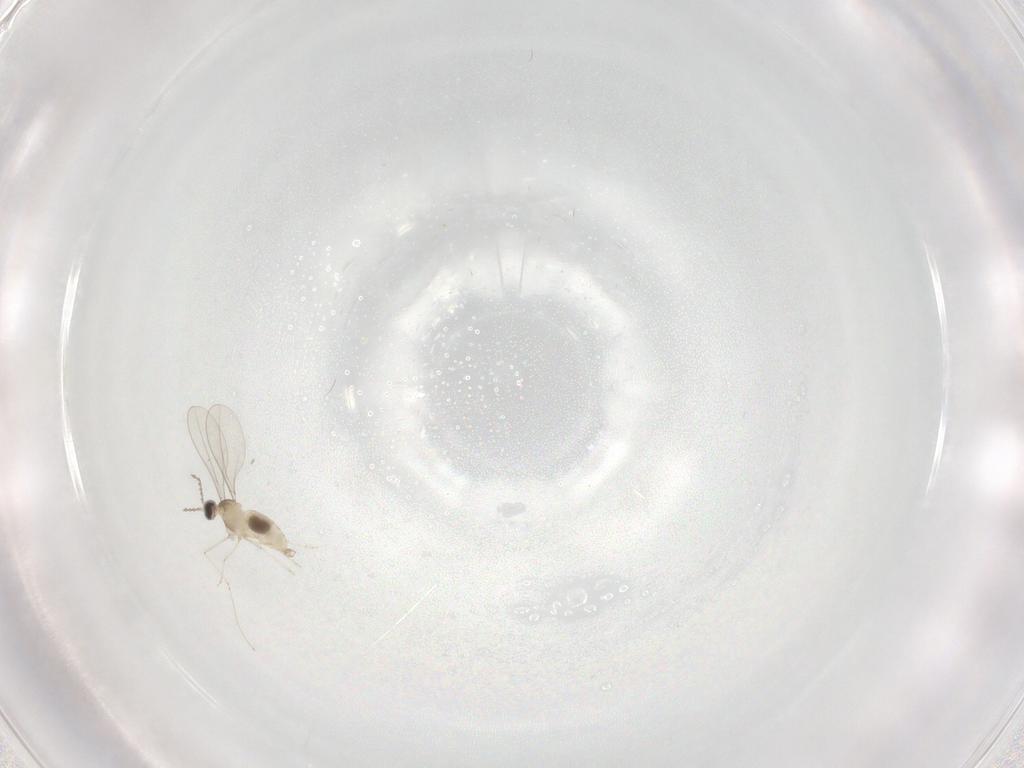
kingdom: Animalia
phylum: Arthropoda
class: Insecta
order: Diptera
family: Cecidomyiidae
